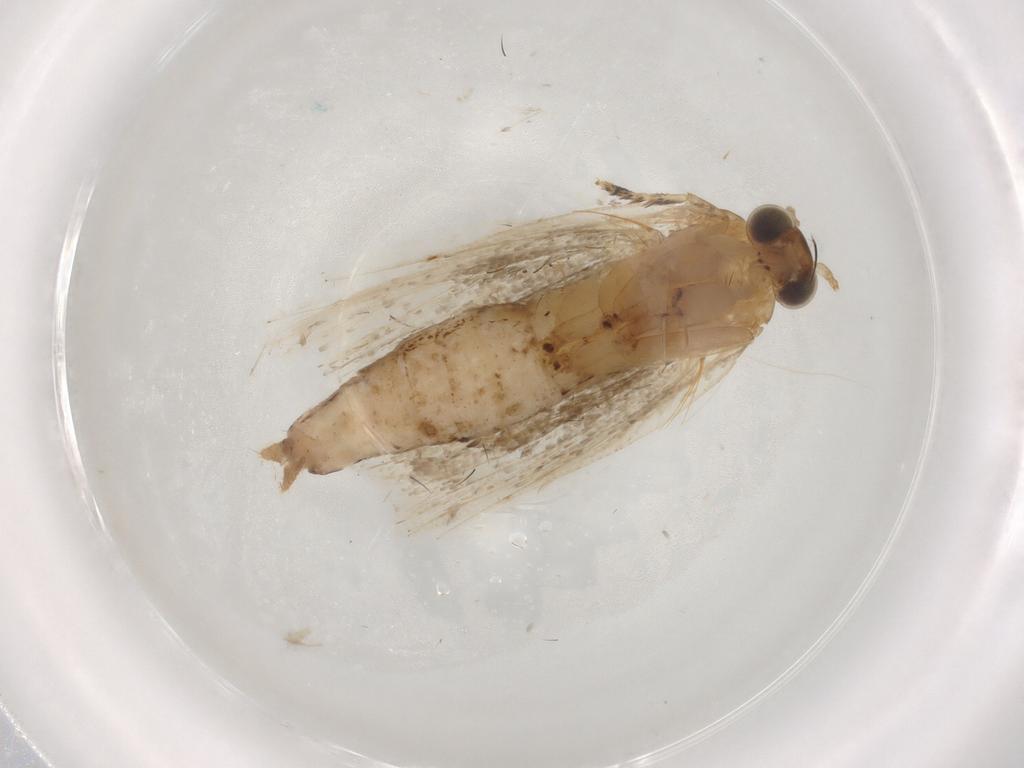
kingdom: Animalia
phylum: Arthropoda
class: Insecta
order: Lepidoptera
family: Tortricidae
